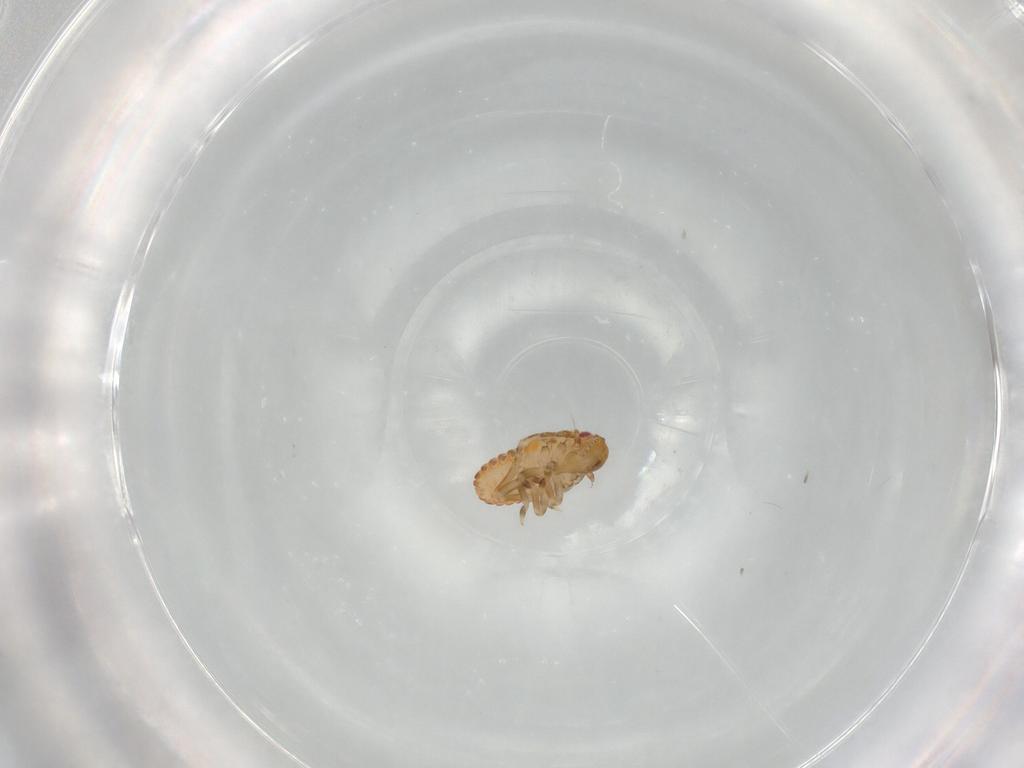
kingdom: Animalia
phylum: Arthropoda
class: Insecta
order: Hemiptera
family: Flatidae
